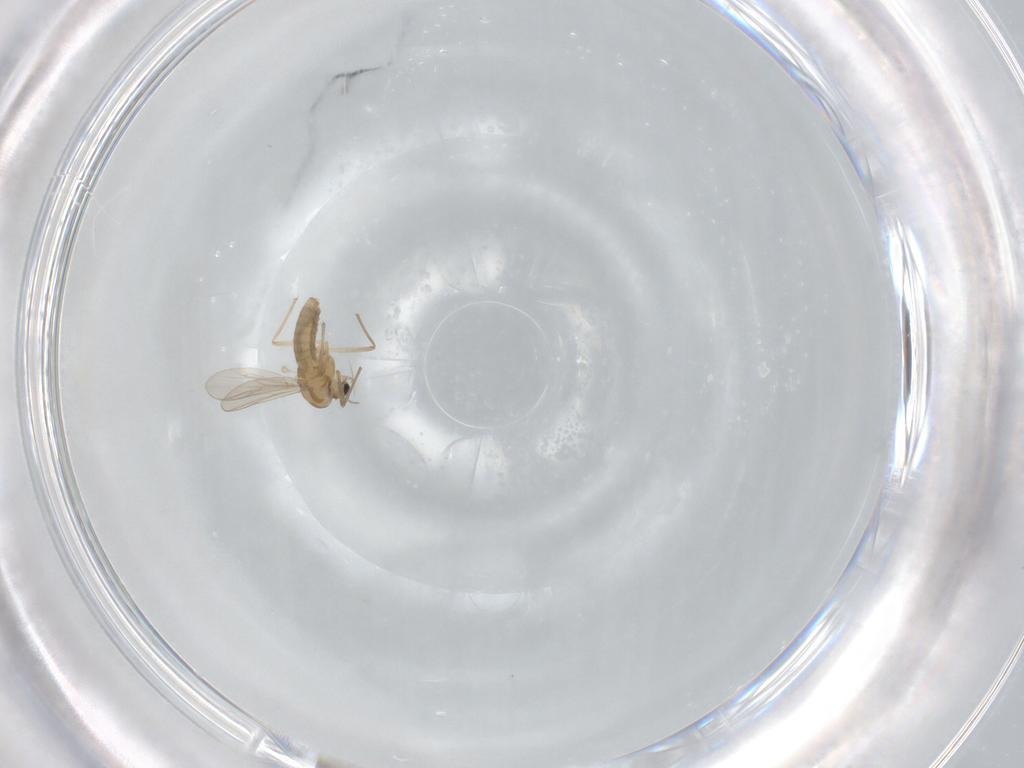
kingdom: Animalia
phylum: Arthropoda
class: Insecta
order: Diptera
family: Chironomidae
